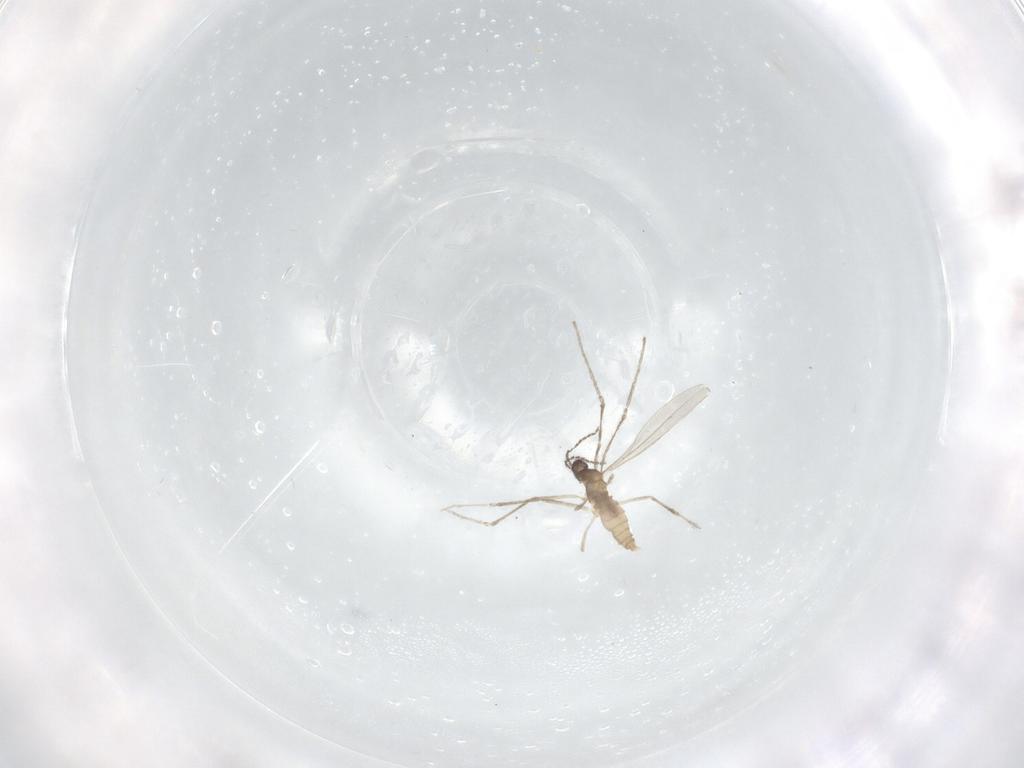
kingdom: Animalia
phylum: Arthropoda
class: Insecta
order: Diptera
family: Cecidomyiidae
